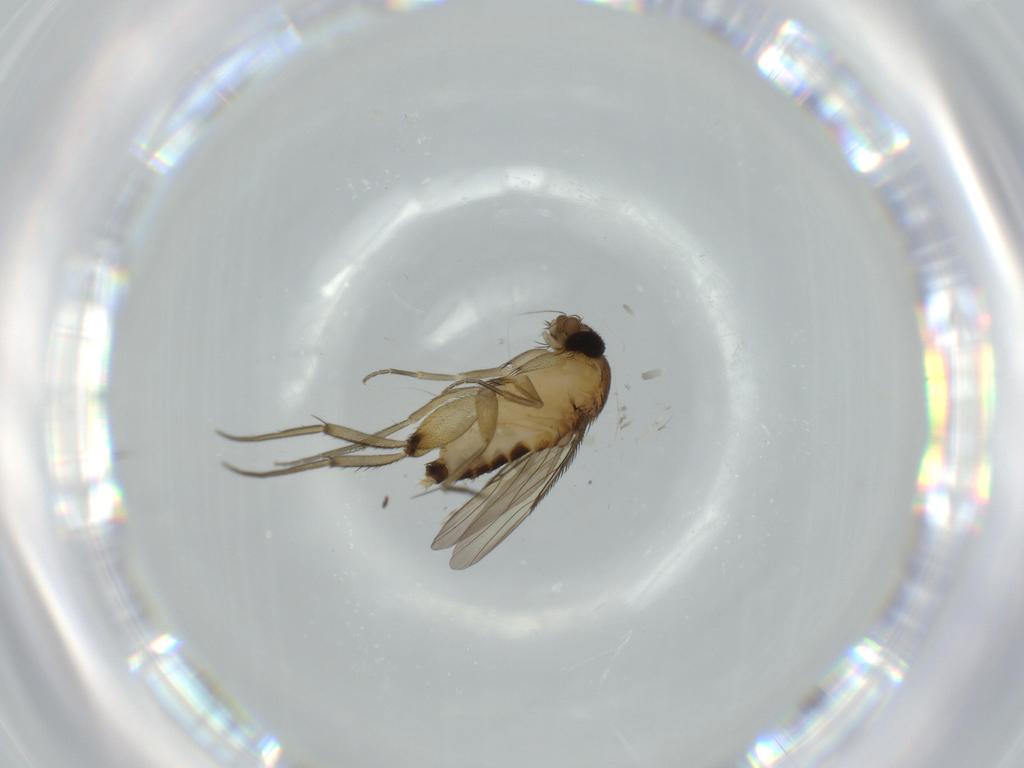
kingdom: Animalia
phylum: Arthropoda
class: Insecta
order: Diptera
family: Phoridae
